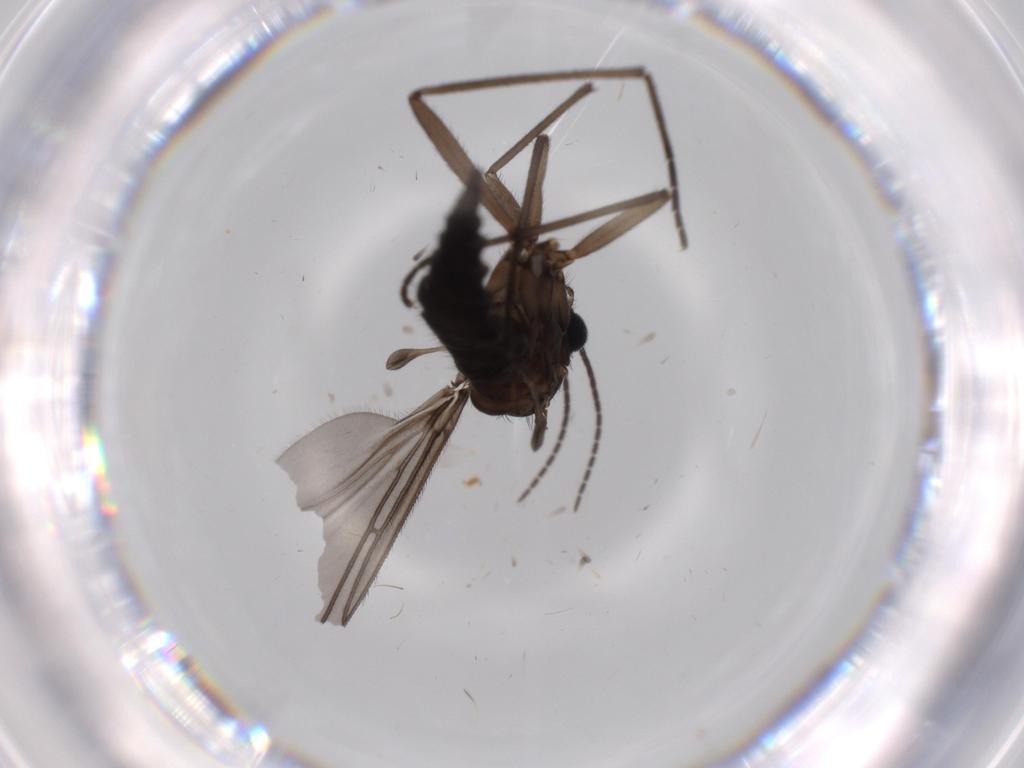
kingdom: Animalia
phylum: Arthropoda
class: Insecta
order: Diptera
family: Sciaridae
